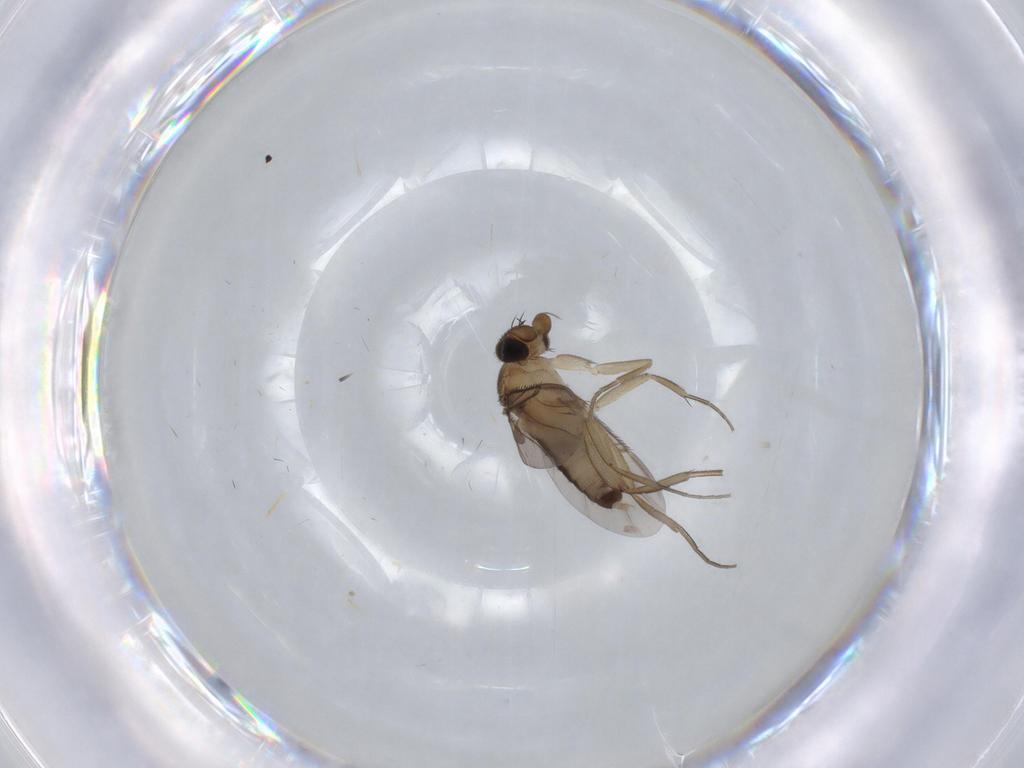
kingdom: Animalia
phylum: Arthropoda
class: Insecta
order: Diptera
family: Phoridae
